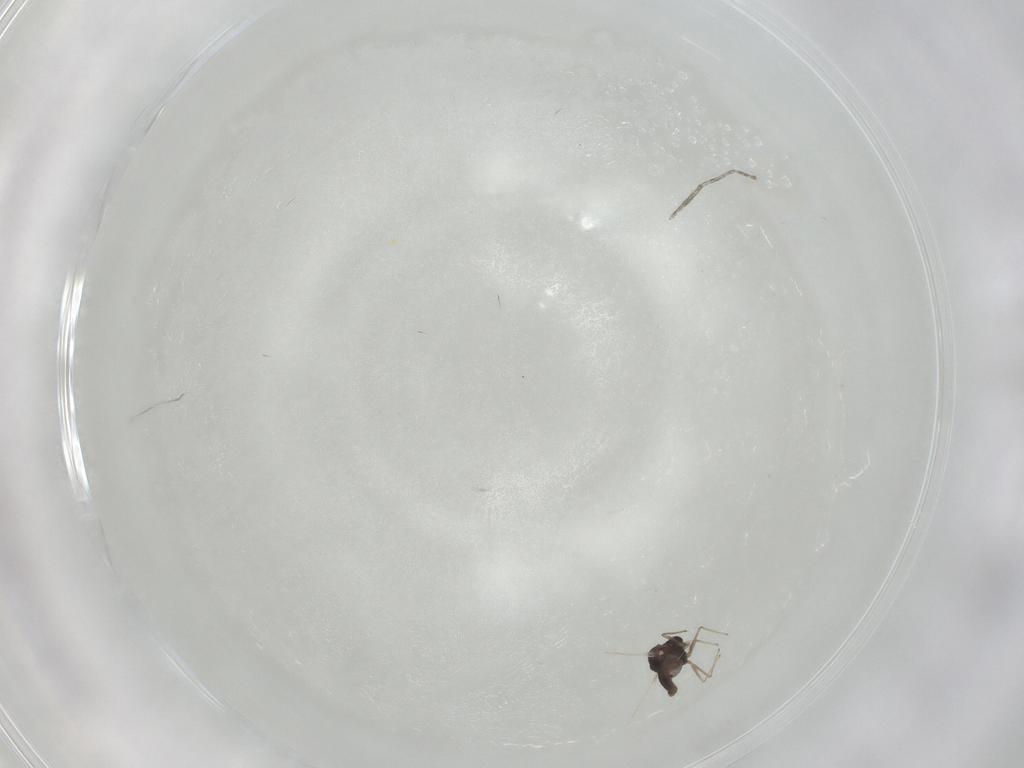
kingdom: Animalia
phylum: Arthropoda
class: Insecta
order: Diptera
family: Chironomidae
